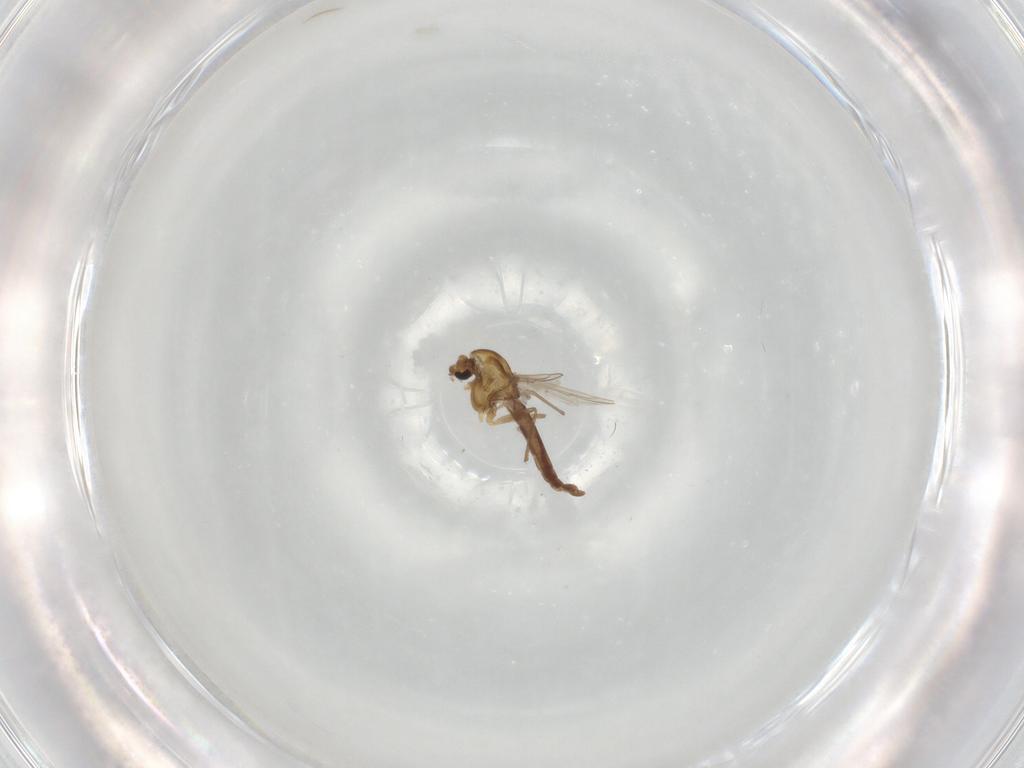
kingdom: Animalia
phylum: Arthropoda
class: Insecta
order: Diptera
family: Chironomidae
